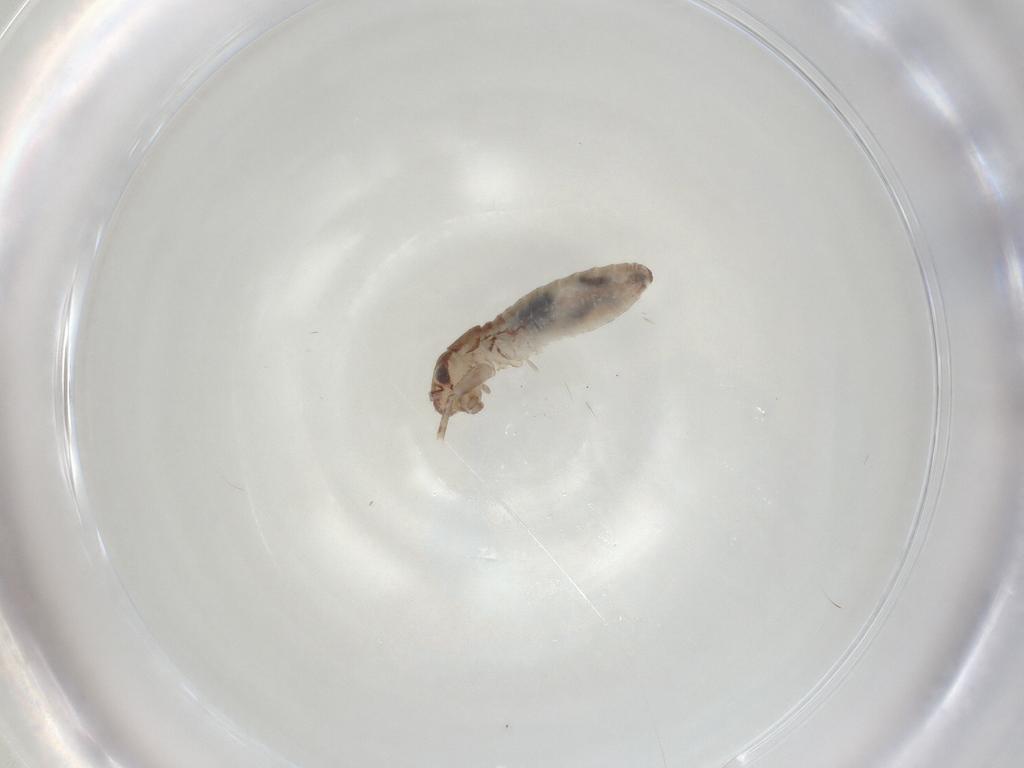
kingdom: Animalia
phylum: Arthropoda
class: Insecta
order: Orthoptera
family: Mogoplistidae
